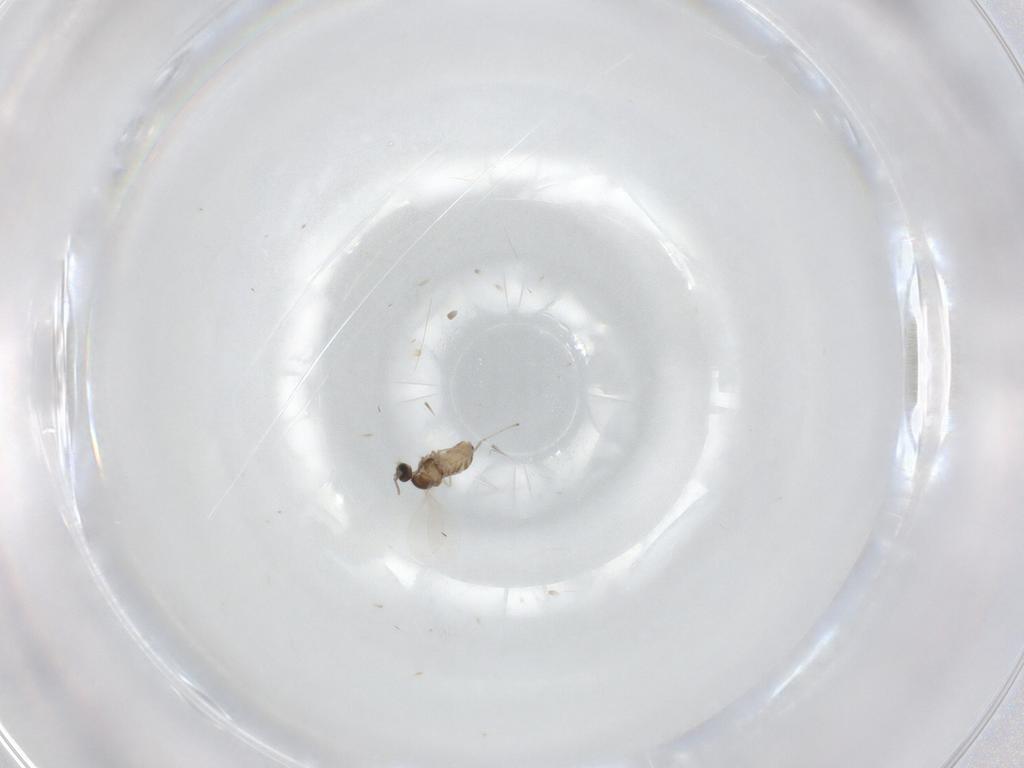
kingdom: Animalia
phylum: Arthropoda
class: Insecta
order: Diptera
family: Cecidomyiidae
